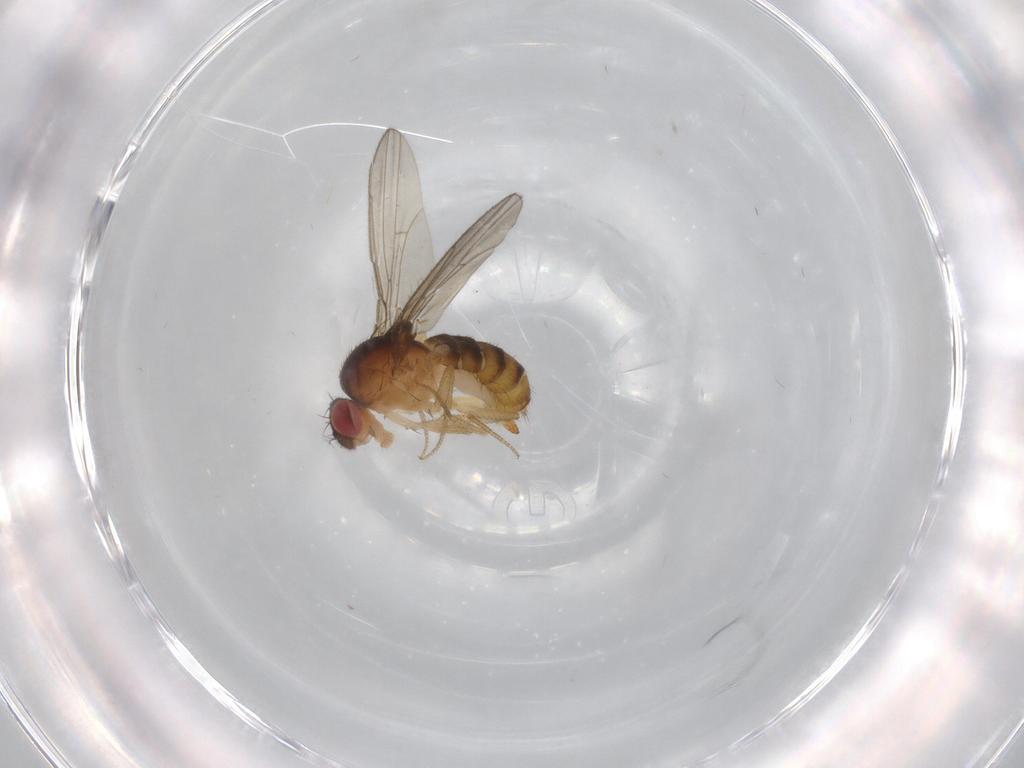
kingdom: Animalia
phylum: Arthropoda
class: Insecta
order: Diptera
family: Drosophilidae
